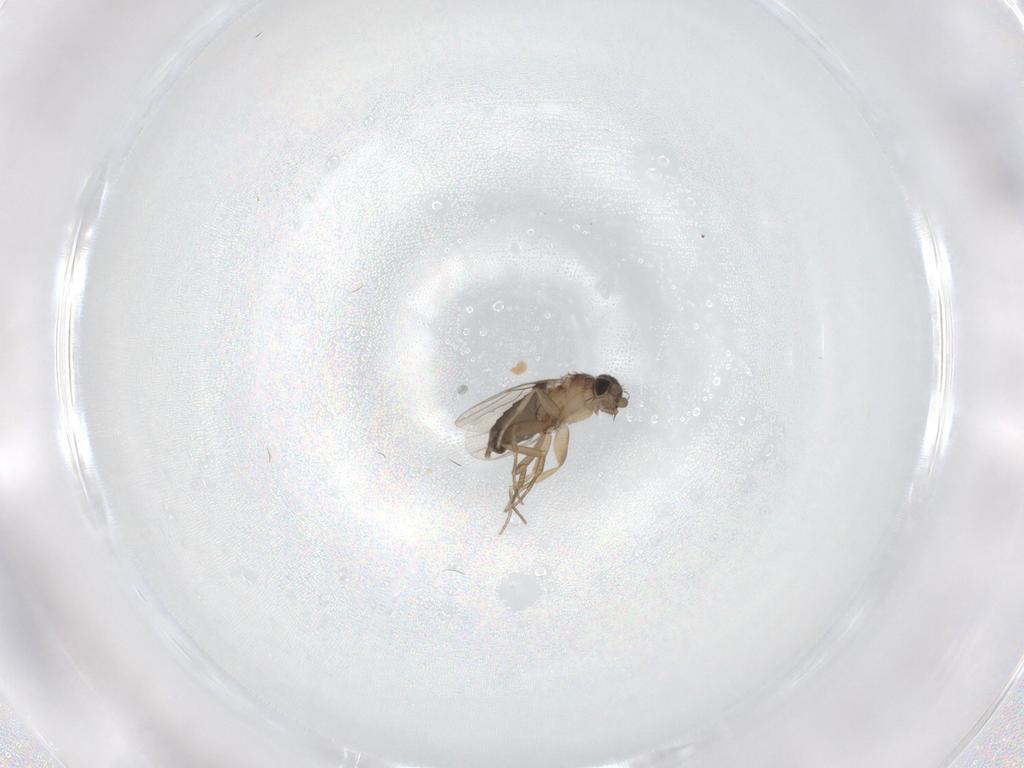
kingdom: Animalia
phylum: Arthropoda
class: Insecta
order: Diptera
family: Phoridae
